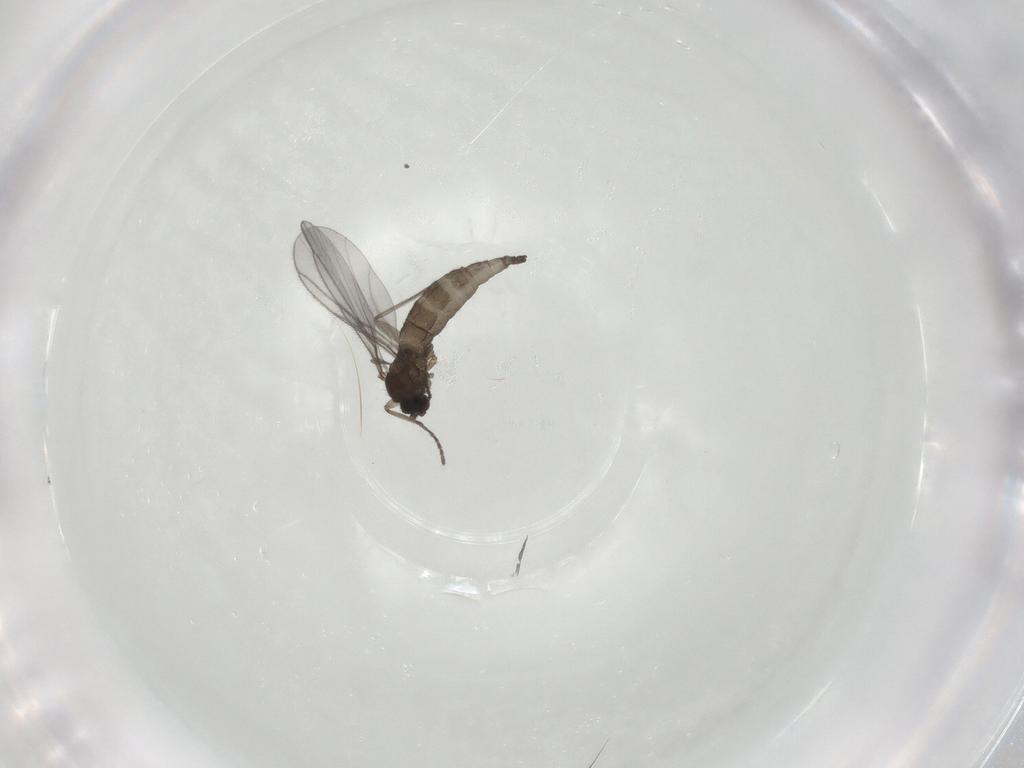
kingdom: Animalia
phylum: Arthropoda
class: Insecta
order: Diptera
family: Sciaridae
